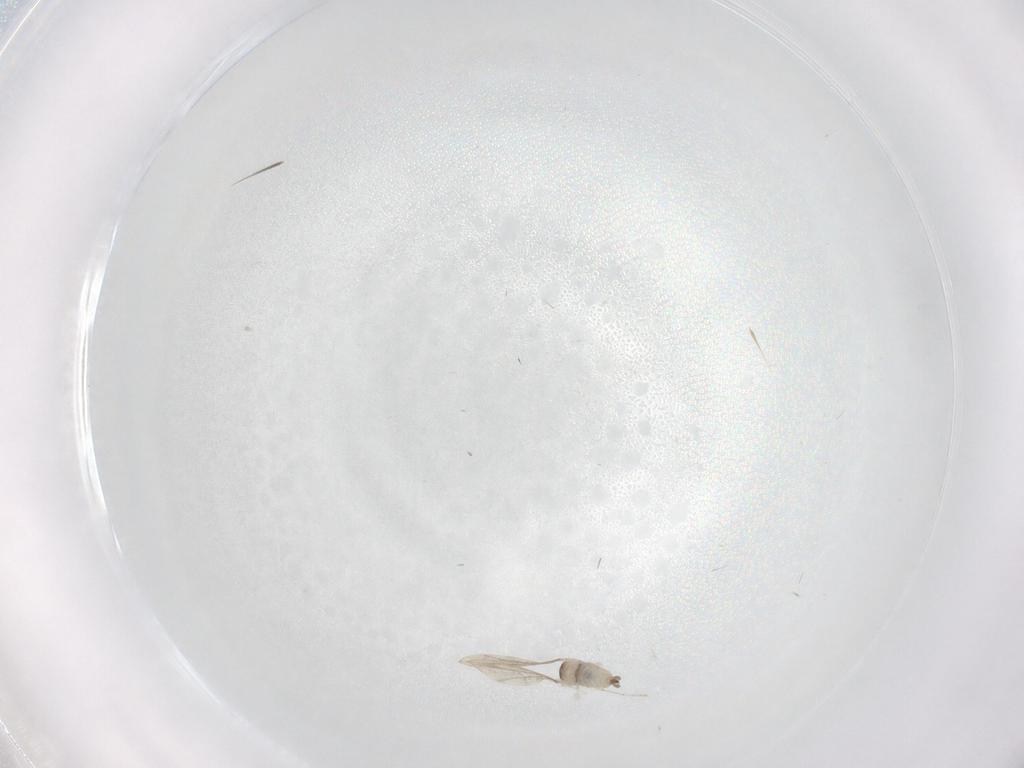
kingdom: Animalia
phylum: Arthropoda
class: Insecta
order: Diptera
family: Cecidomyiidae
